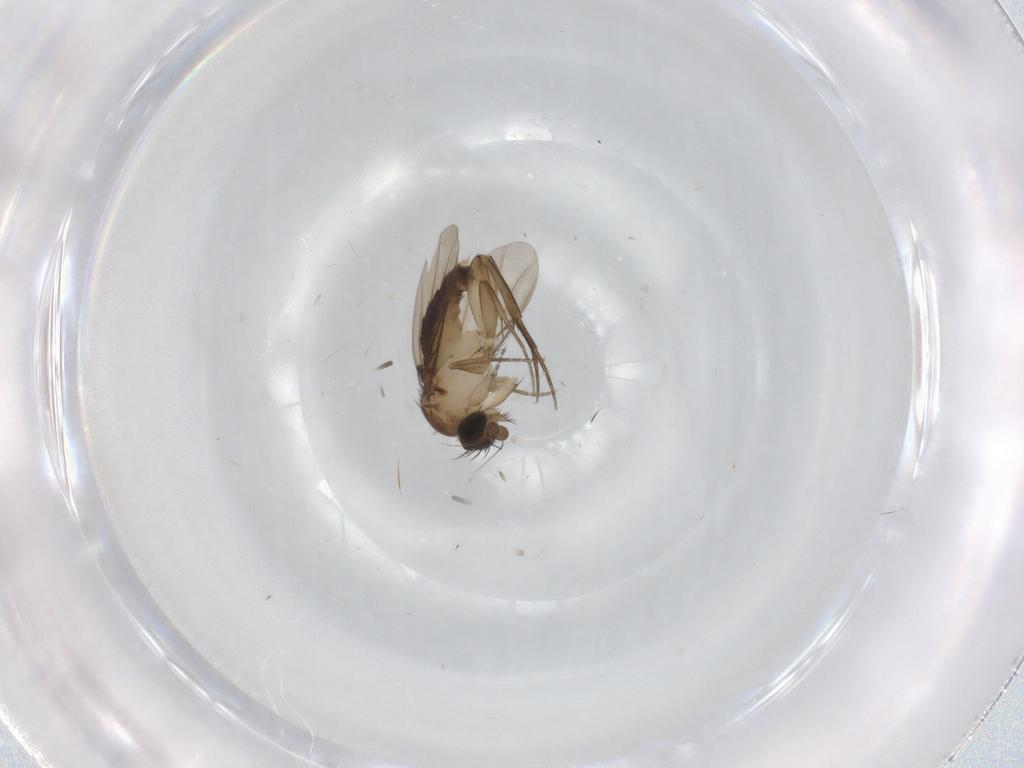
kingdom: Animalia
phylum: Arthropoda
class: Insecta
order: Diptera
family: Phoridae
